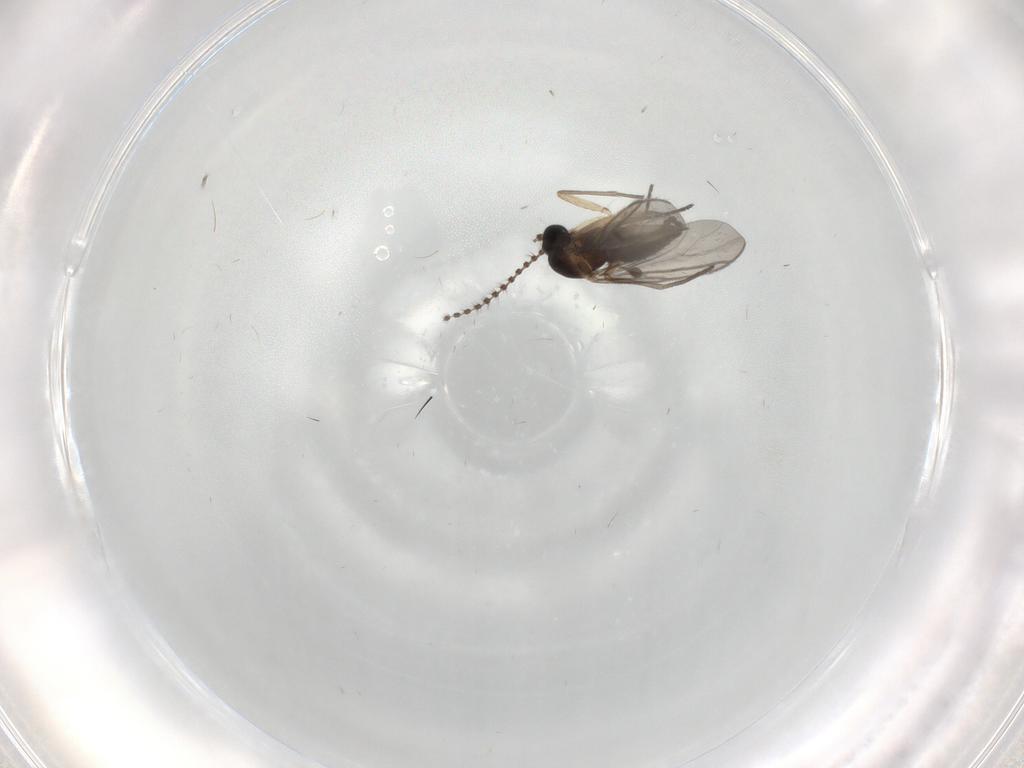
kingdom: Animalia
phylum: Arthropoda
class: Insecta
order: Diptera
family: Sciaridae
